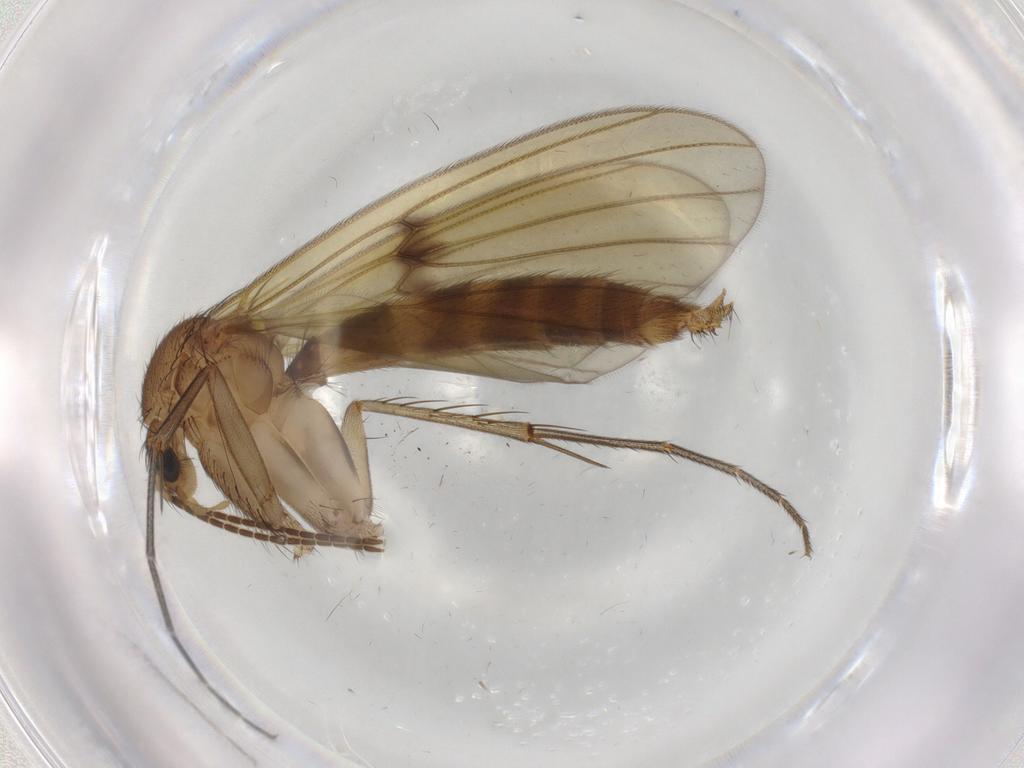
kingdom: Animalia
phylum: Arthropoda
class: Insecta
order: Diptera
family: Mycetophilidae
